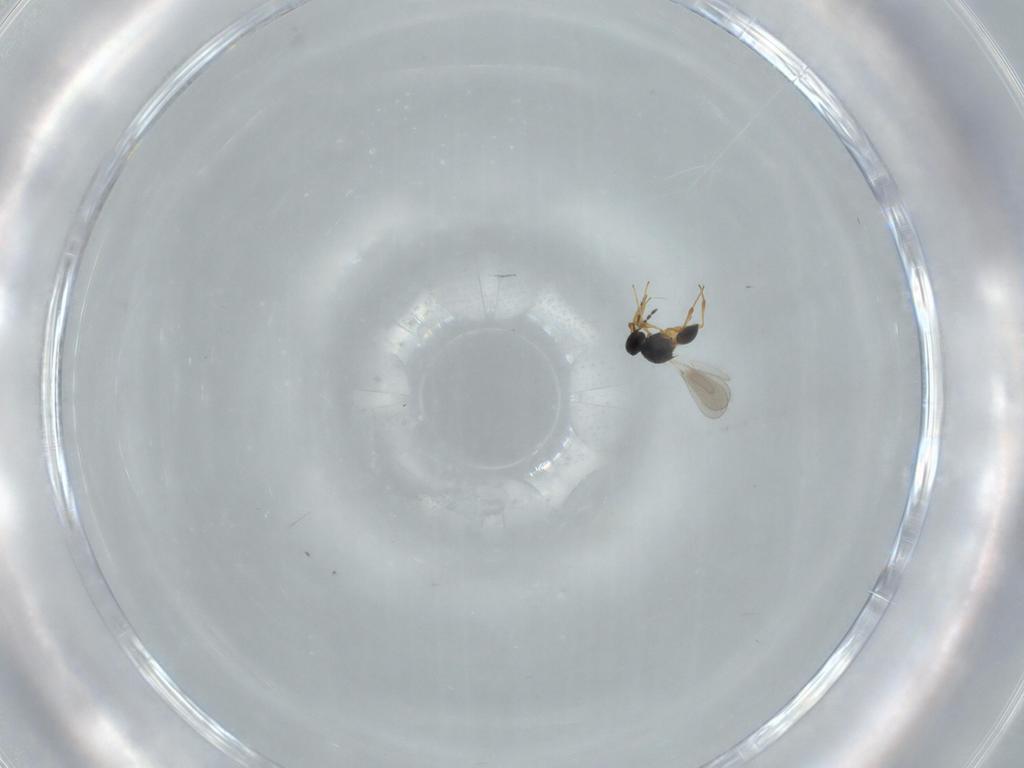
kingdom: Animalia
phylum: Arthropoda
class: Insecta
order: Hymenoptera
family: Platygastridae
